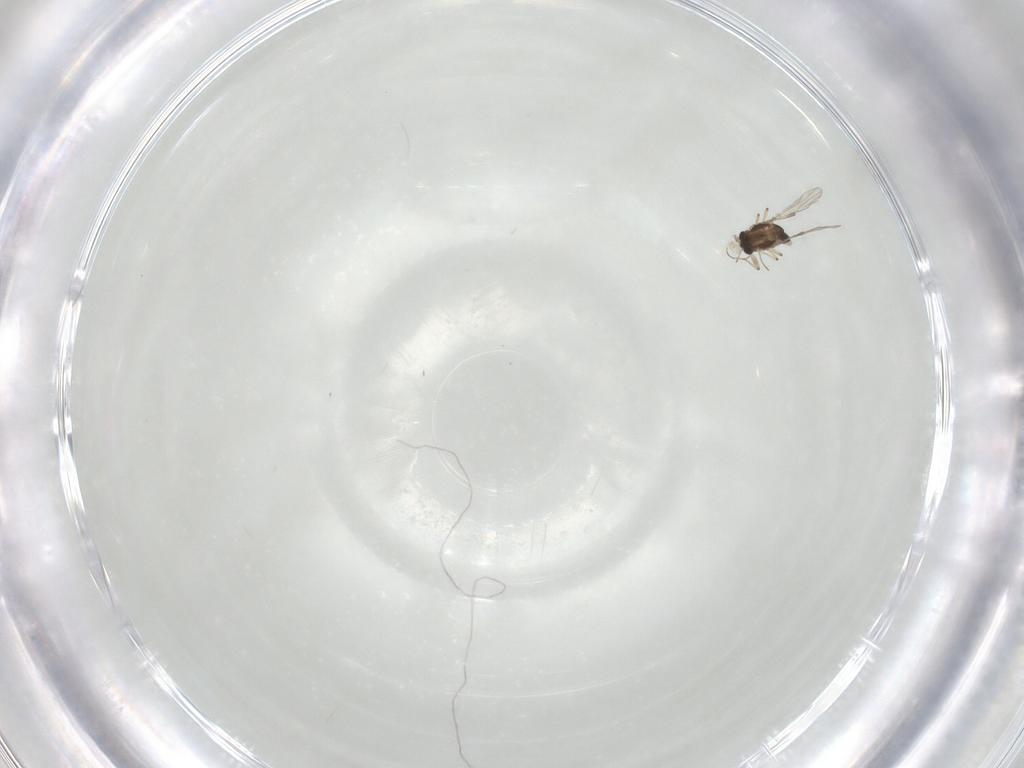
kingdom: Animalia
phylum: Arthropoda
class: Insecta
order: Diptera
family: Chironomidae
